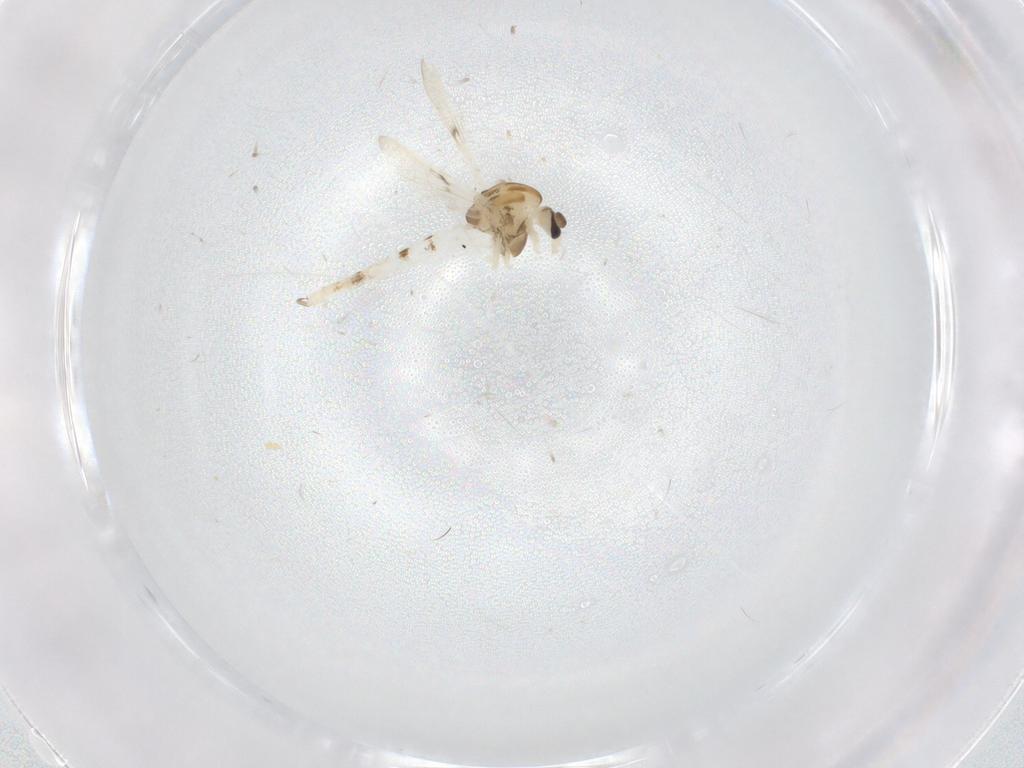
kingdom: Animalia
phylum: Arthropoda
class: Insecta
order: Diptera
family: Chironomidae
